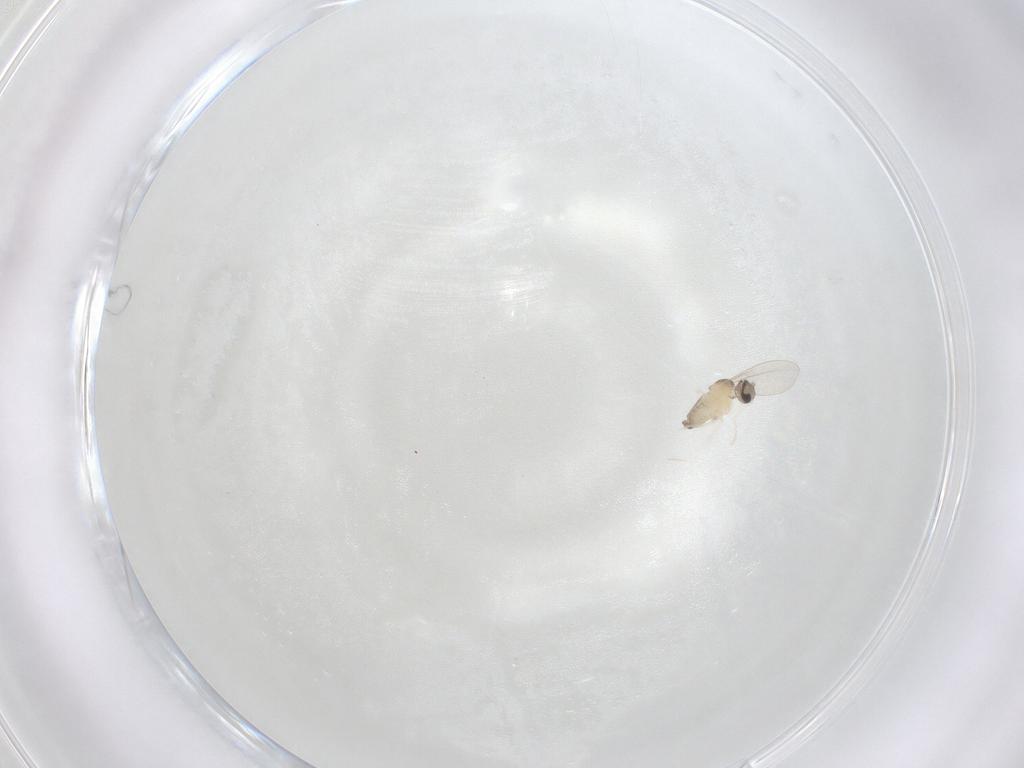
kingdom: Animalia
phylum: Arthropoda
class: Insecta
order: Diptera
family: Cecidomyiidae
